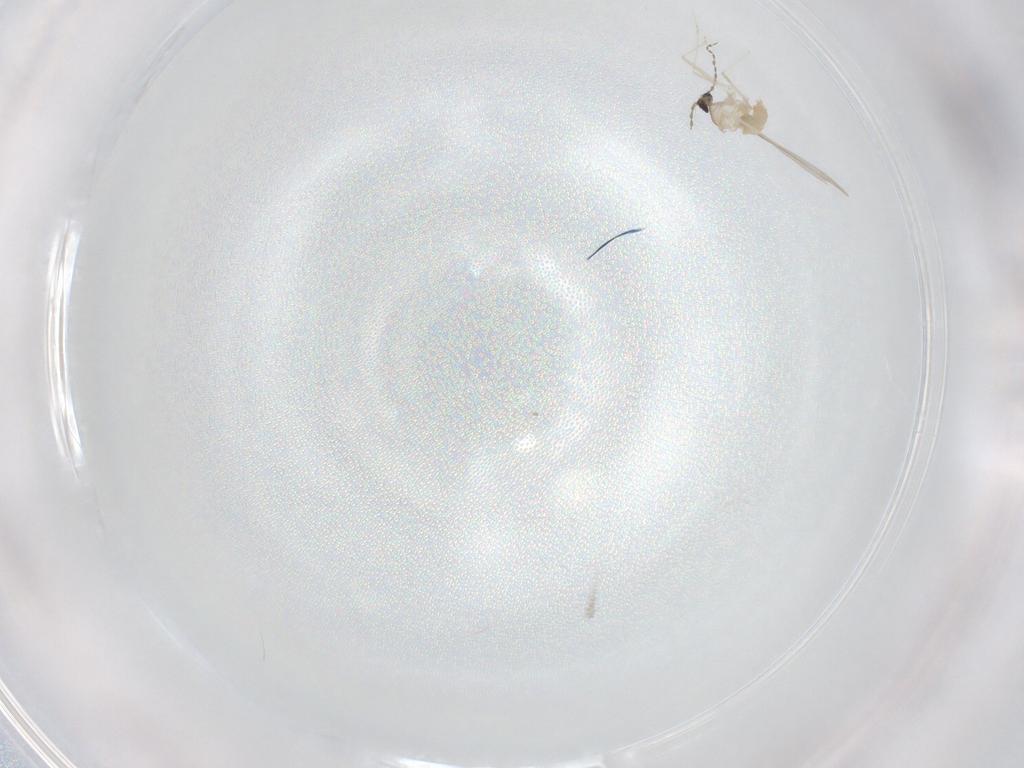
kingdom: Animalia
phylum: Arthropoda
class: Insecta
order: Diptera
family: Cecidomyiidae
